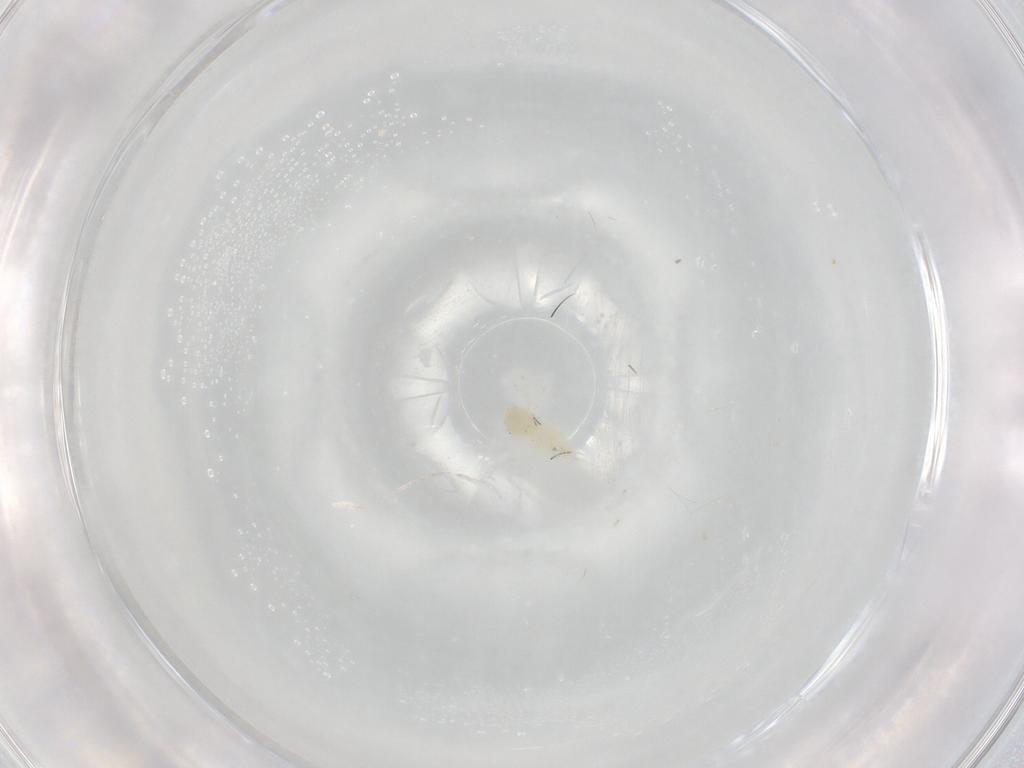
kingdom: Animalia
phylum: Arthropoda
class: Insecta
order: Hemiptera
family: Aleyrodidae
